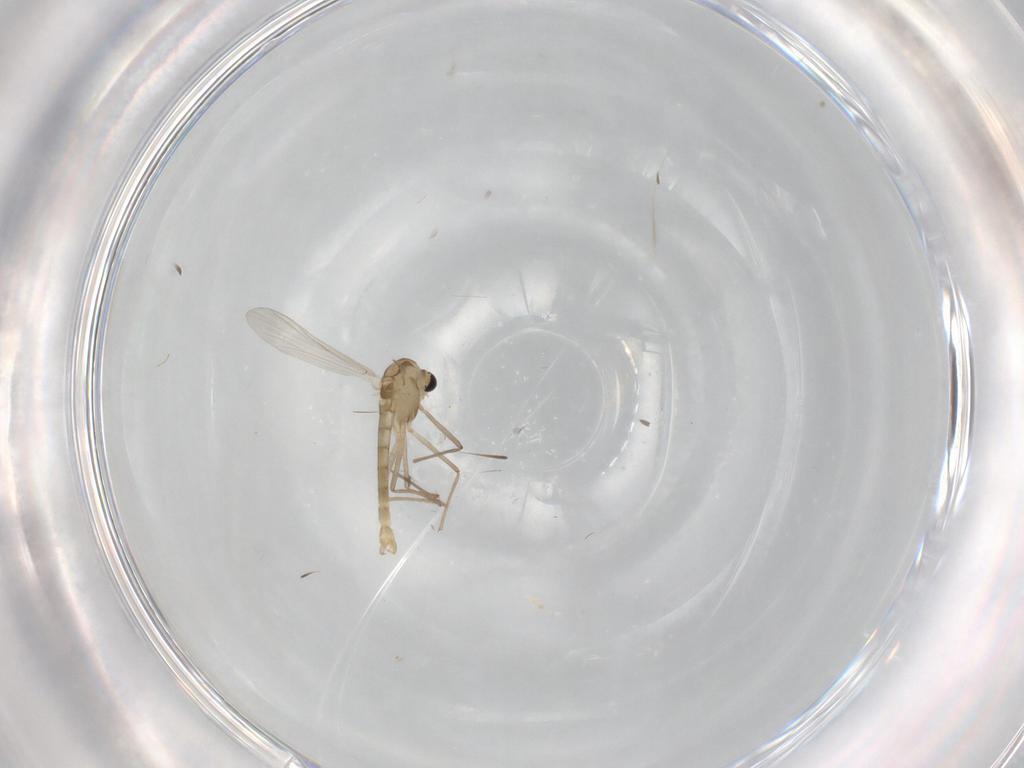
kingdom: Animalia
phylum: Arthropoda
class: Insecta
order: Diptera
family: Chironomidae
